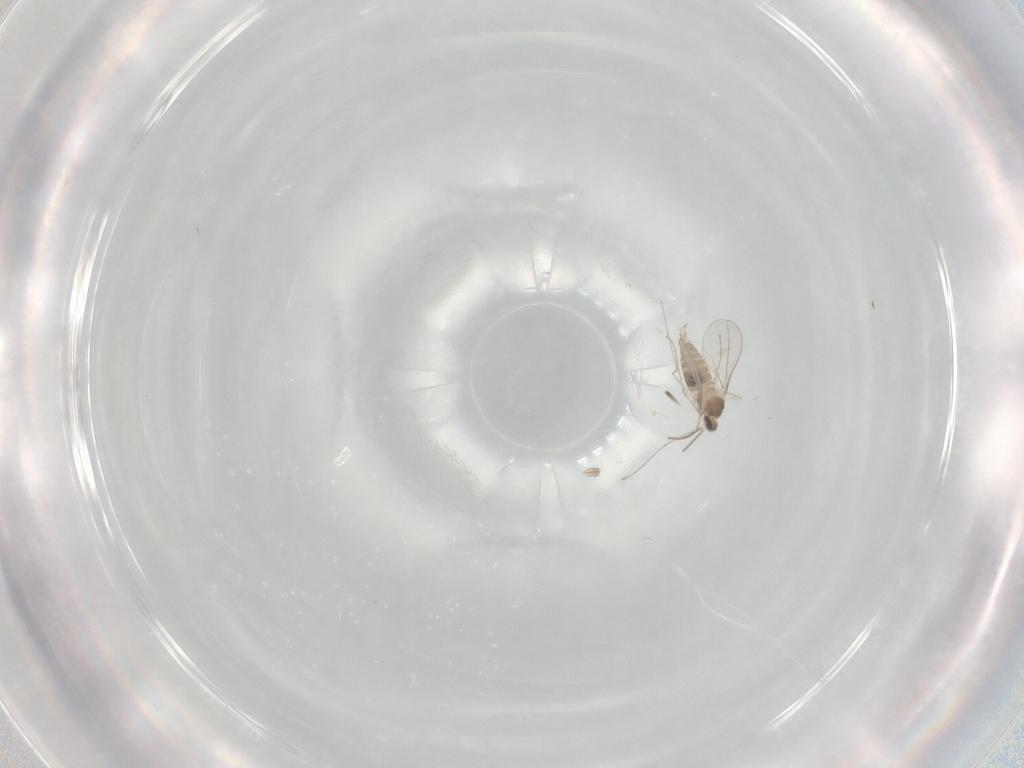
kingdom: Animalia
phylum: Arthropoda
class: Insecta
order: Diptera
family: Cecidomyiidae
